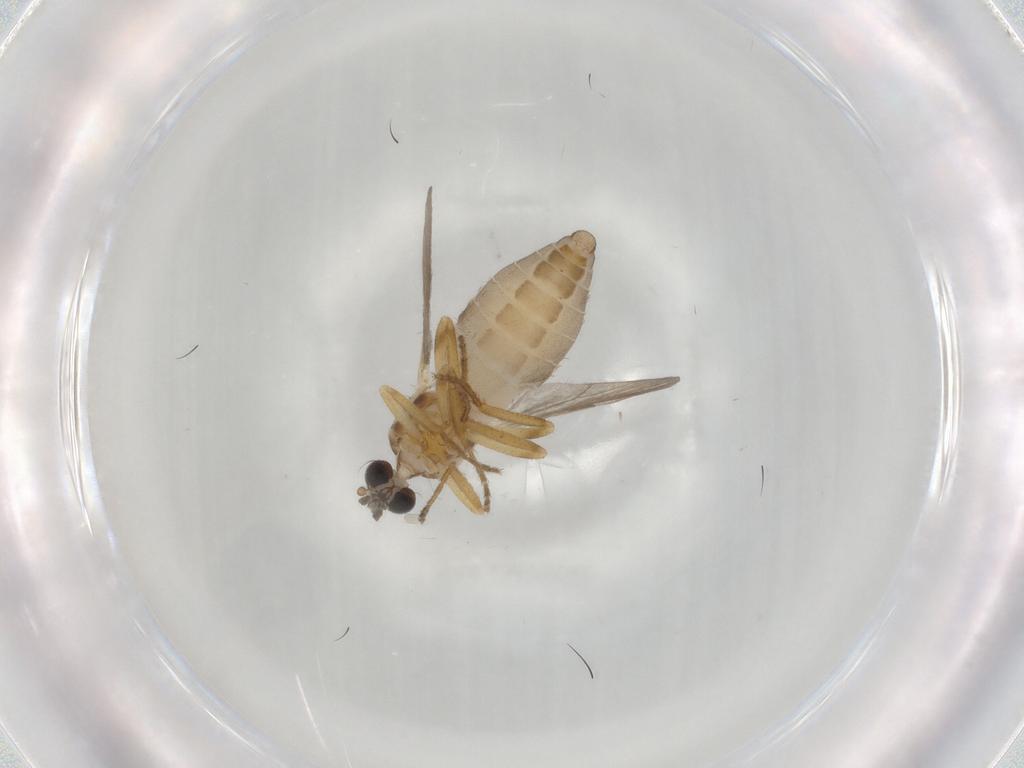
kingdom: Animalia
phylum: Arthropoda
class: Insecta
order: Diptera
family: Ceratopogonidae
